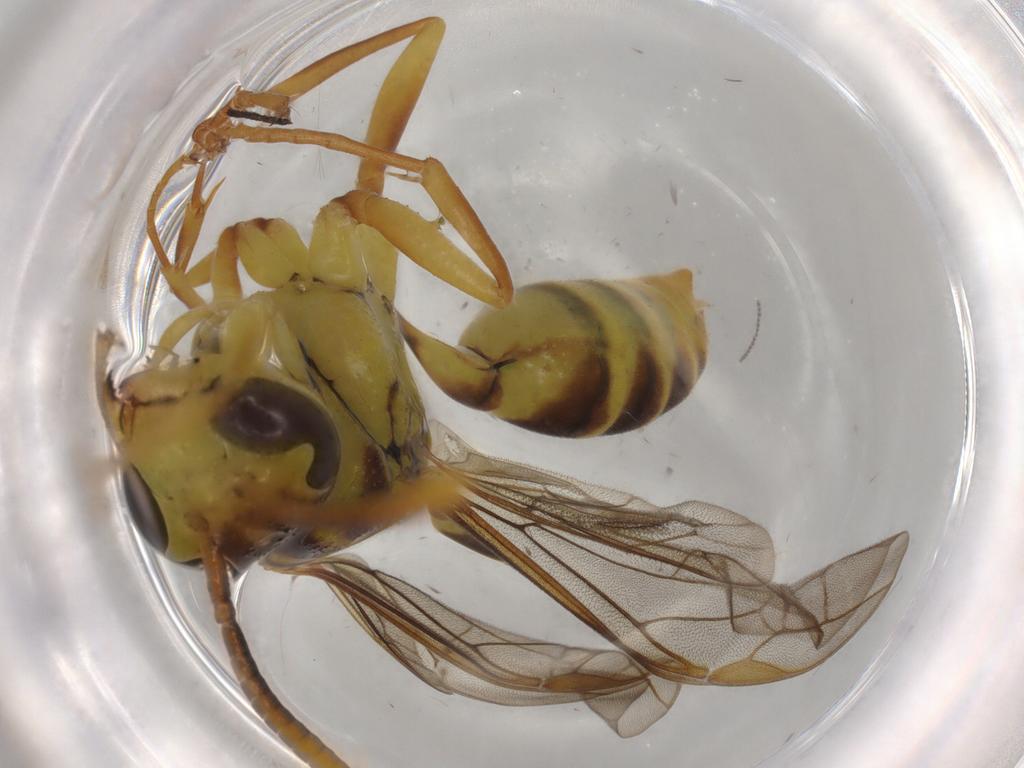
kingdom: Animalia
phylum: Arthropoda
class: Insecta
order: Hymenoptera
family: Vespidae
